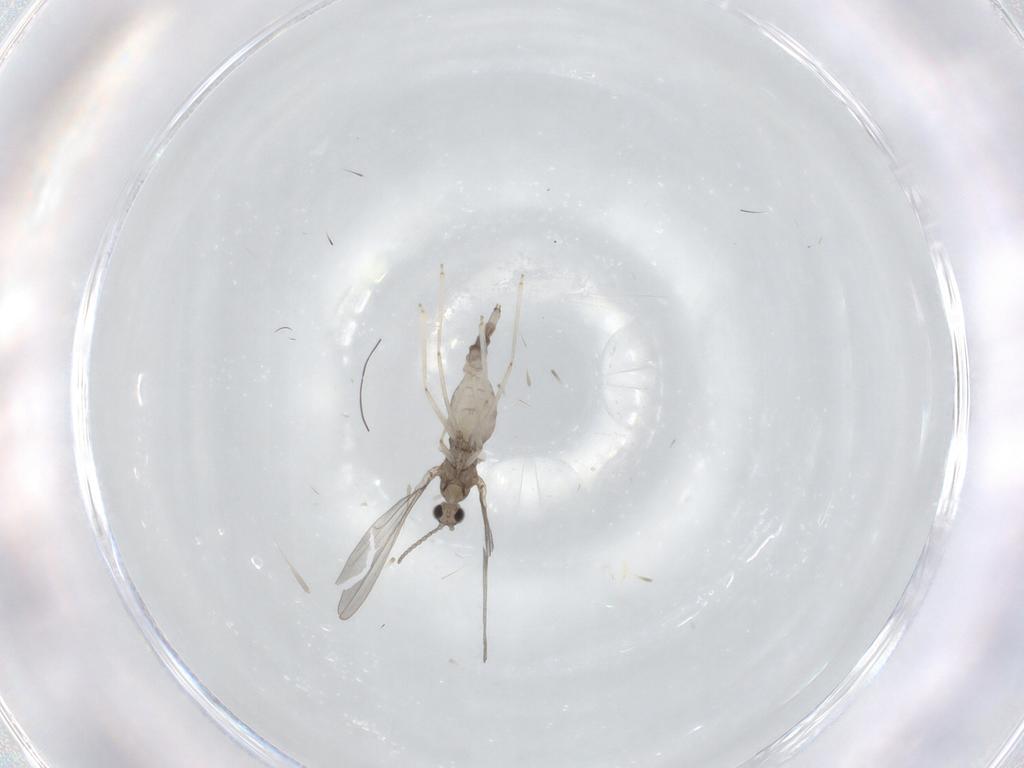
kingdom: Animalia
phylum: Arthropoda
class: Insecta
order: Diptera
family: Cecidomyiidae
